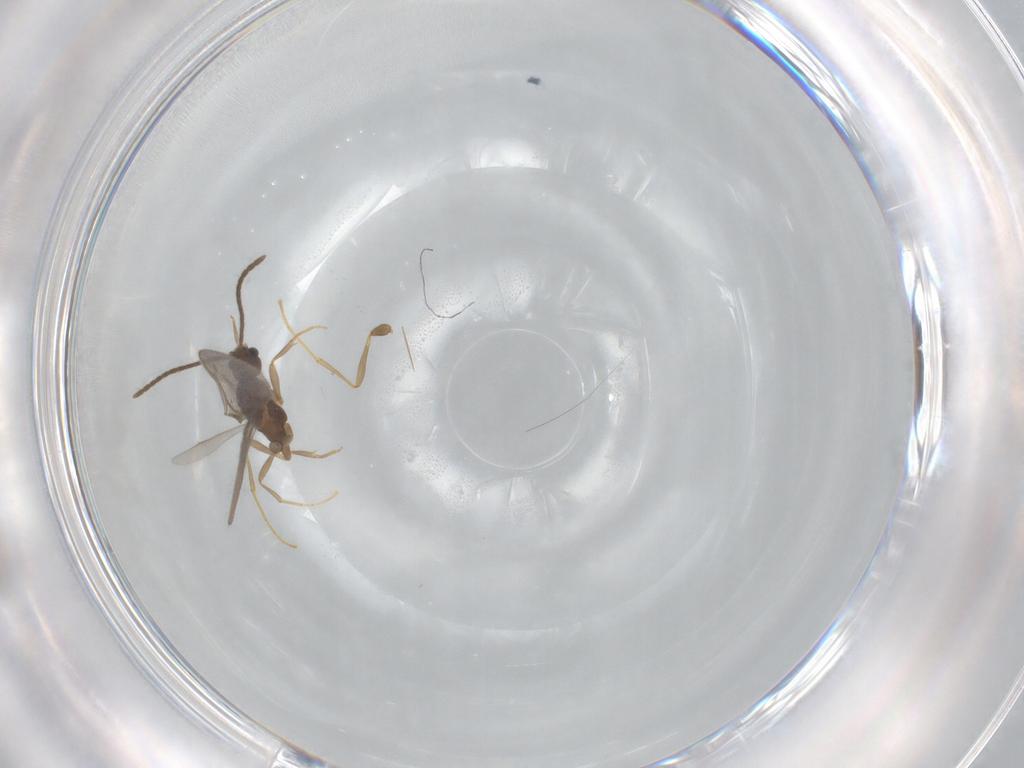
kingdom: Animalia
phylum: Arthropoda
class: Insecta
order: Hymenoptera
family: Formicidae
